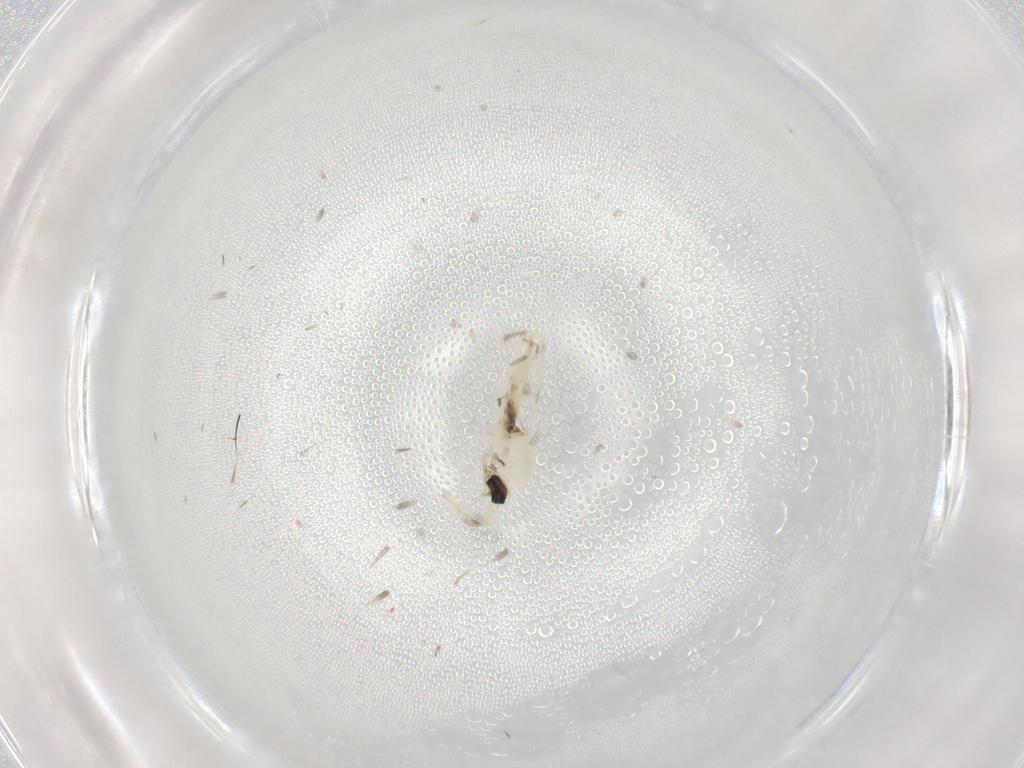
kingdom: Animalia
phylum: Arthropoda
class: Insecta
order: Diptera
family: Cecidomyiidae
